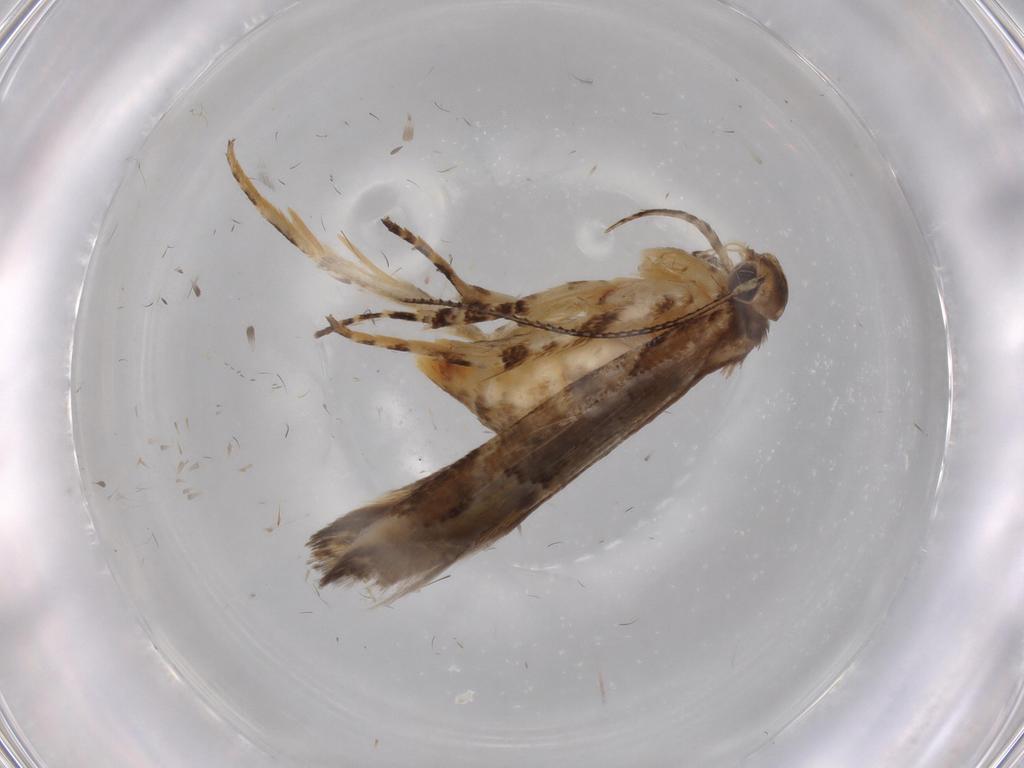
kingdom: Animalia
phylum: Arthropoda
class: Insecta
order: Lepidoptera
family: Gelechiidae
